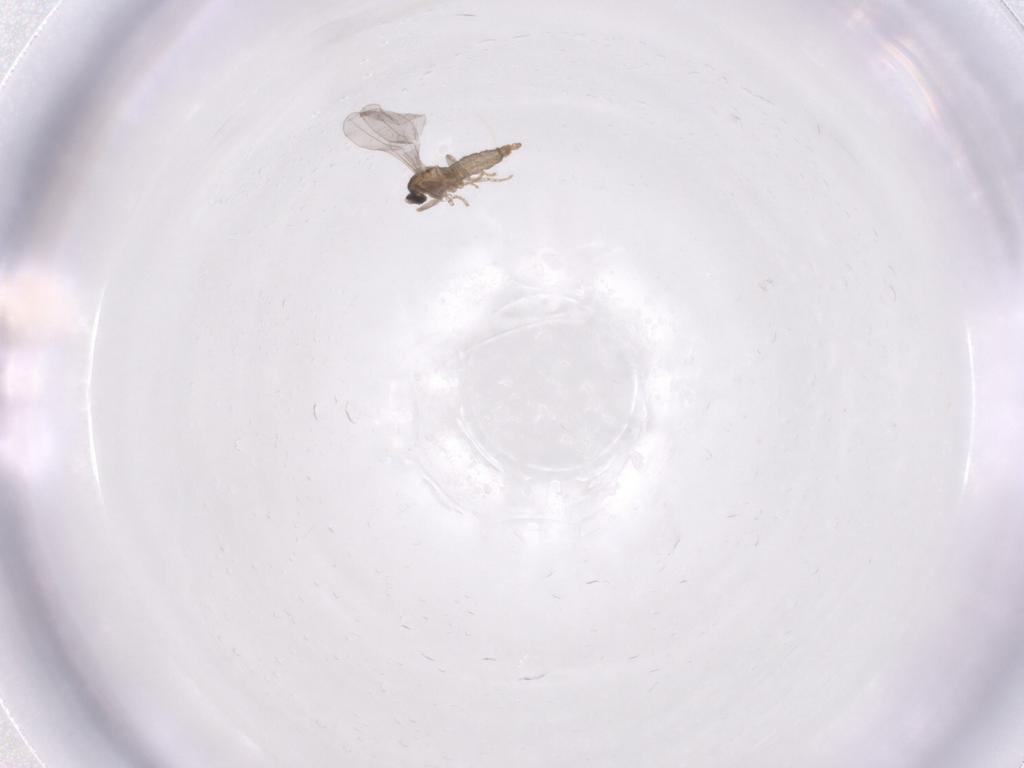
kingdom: Animalia
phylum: Arthropoda
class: Insecta
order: Diptera
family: Cecidomyiidae
